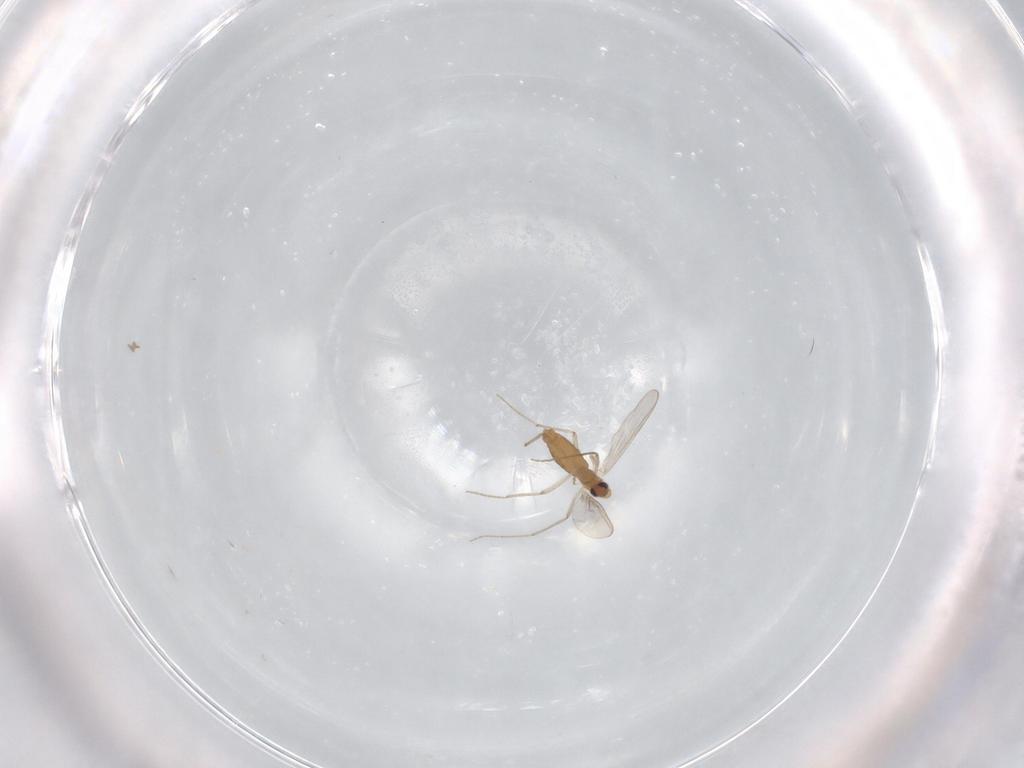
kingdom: Animalia
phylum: Arthropoda
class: Insecta
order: Diptera
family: Chironomidae
